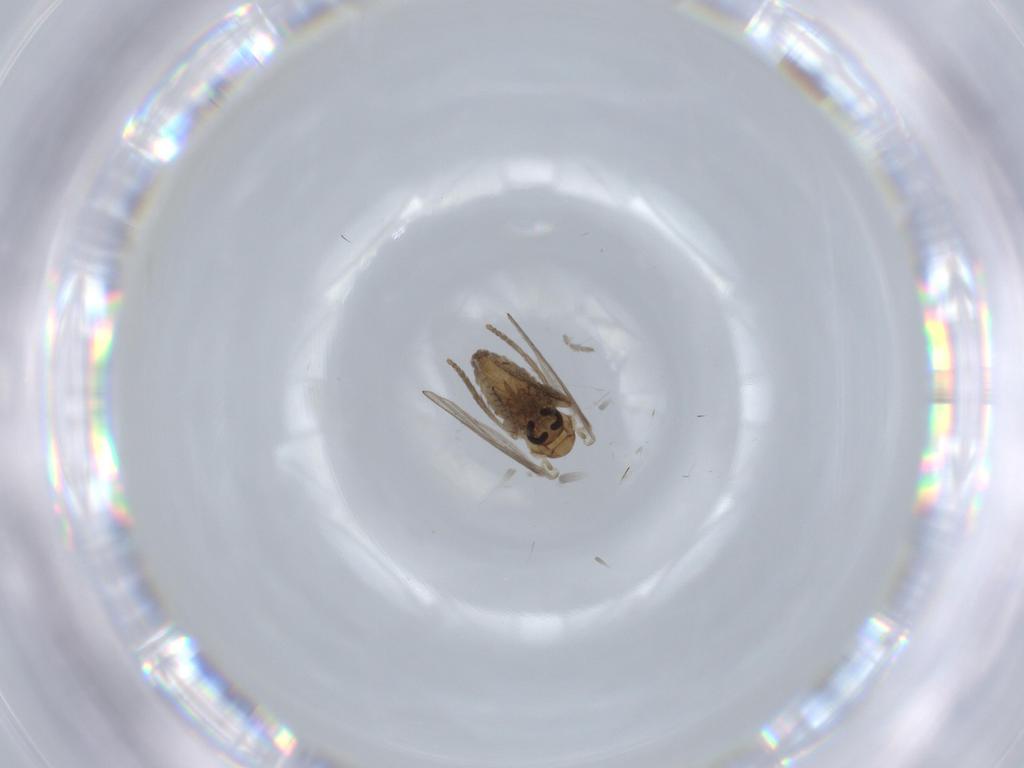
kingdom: Animalia
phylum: Arthropoda
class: Insecta
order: Diptera
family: Psychodidae
